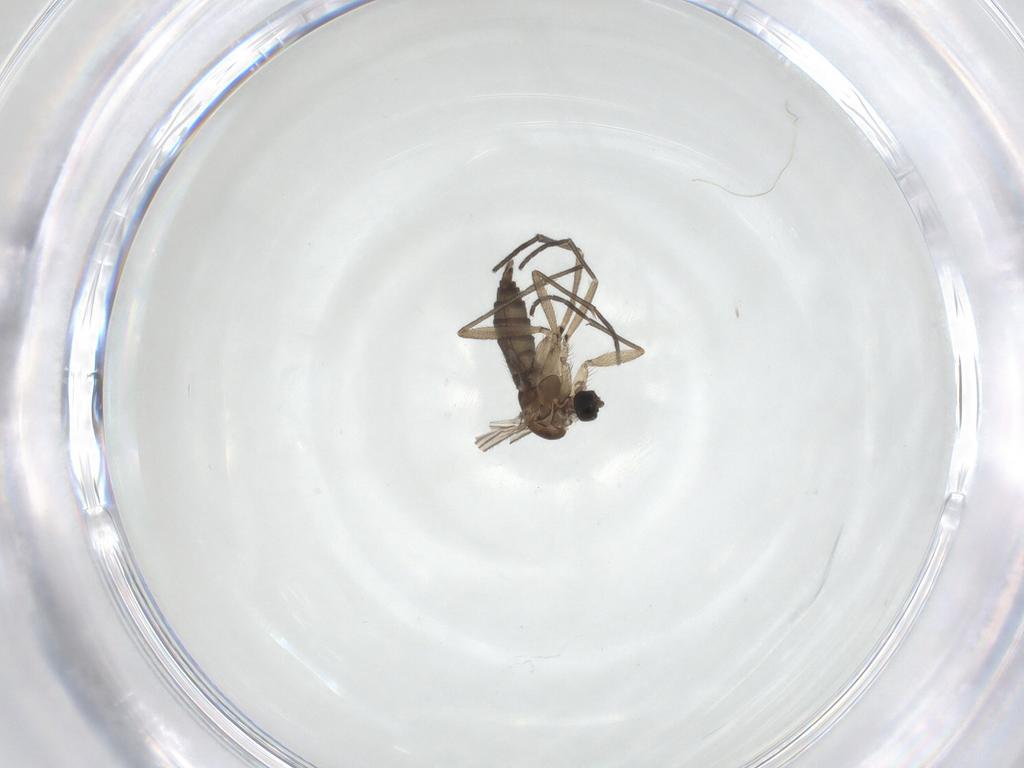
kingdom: Animalia
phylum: Arthropoda
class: Insecta
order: Diptera
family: Sciaridae
